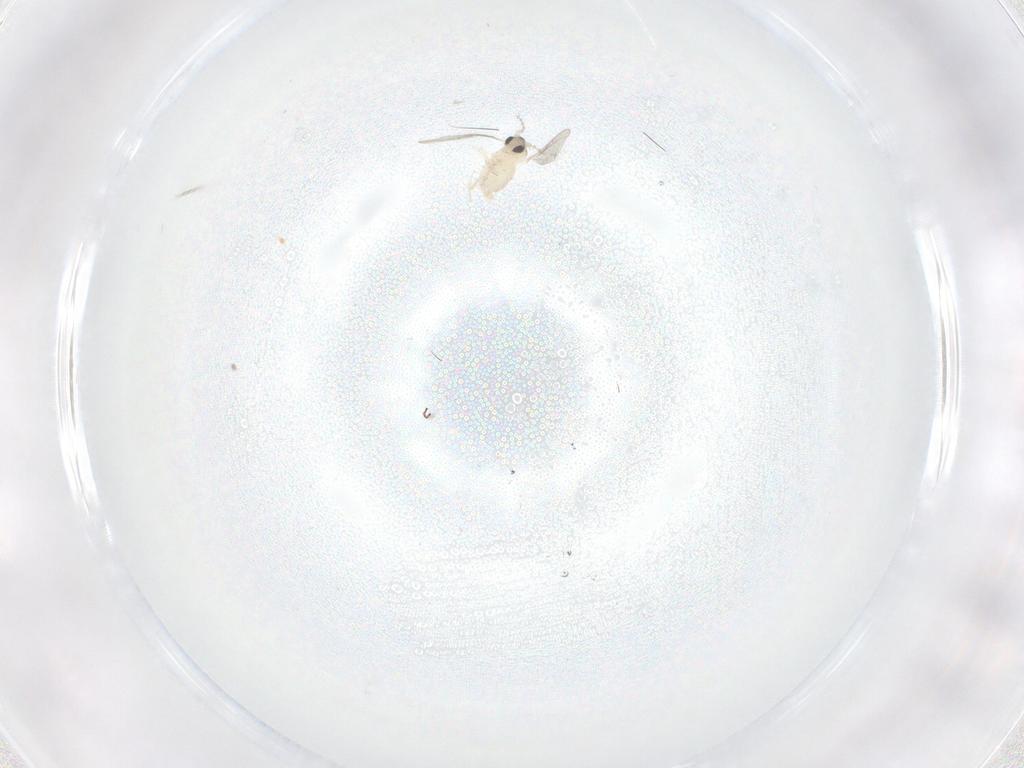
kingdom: Animalia
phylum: Arthropoda
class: Insecta
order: Diptera
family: Cecidomyiidae
